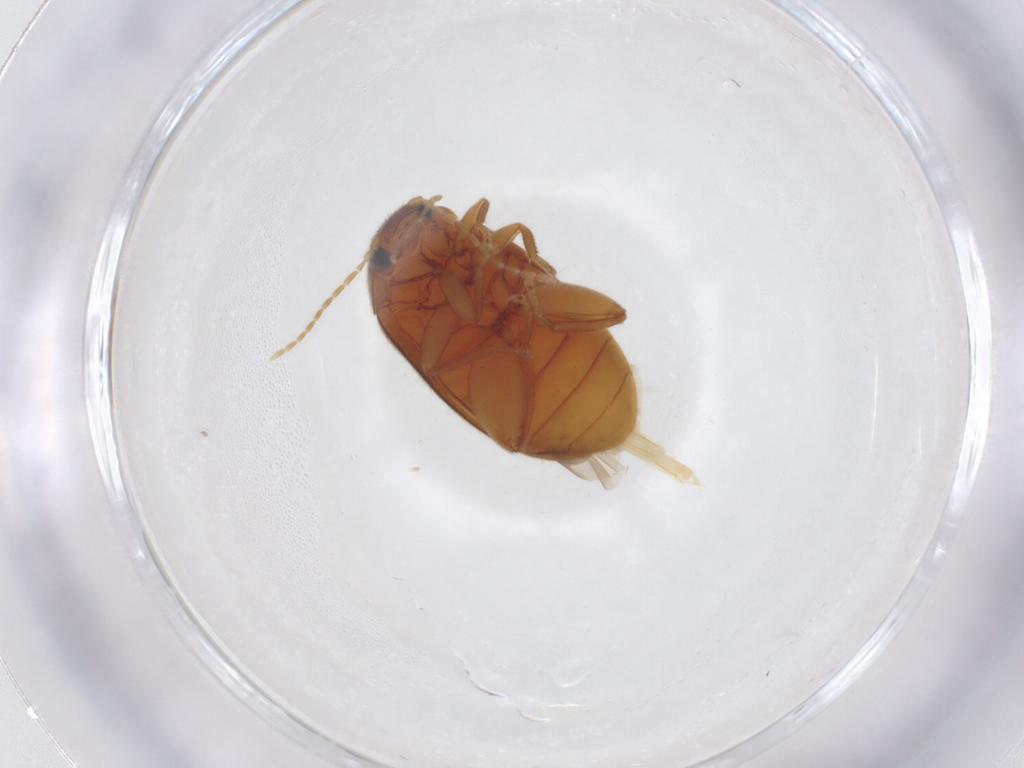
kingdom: Animalia
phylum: Arthropoda
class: Insecta
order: Coleoptera
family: Scirtidae
